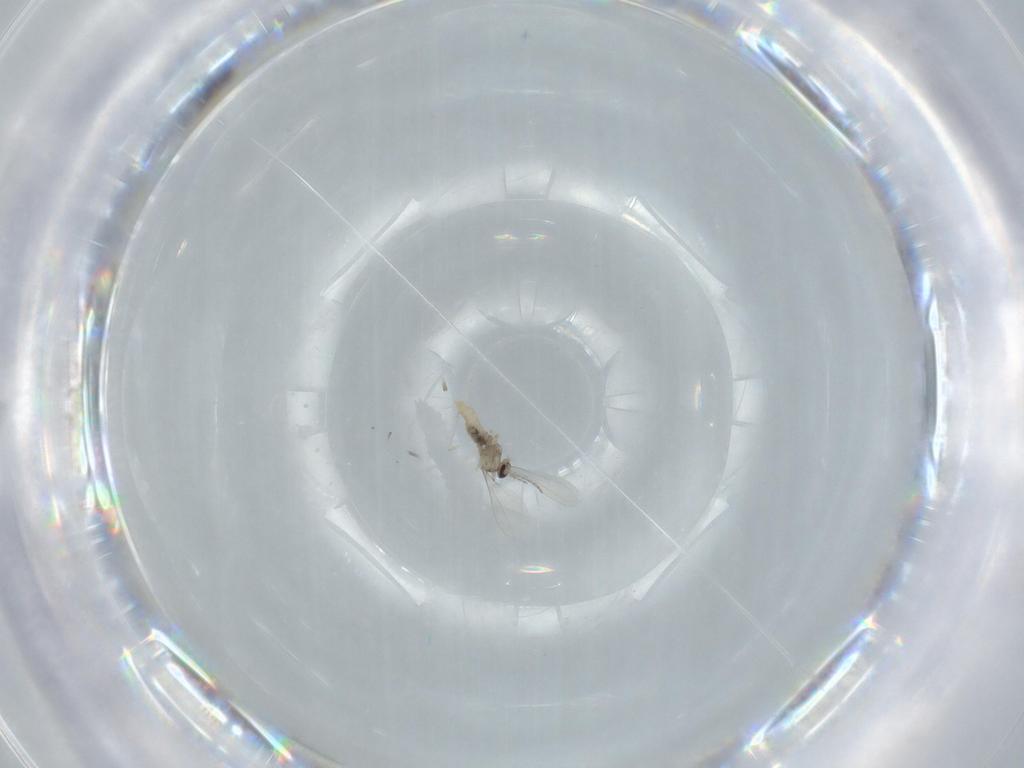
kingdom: Animalia
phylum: Arthropoda
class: Insecta
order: Diptera
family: Cecidomyiidae
